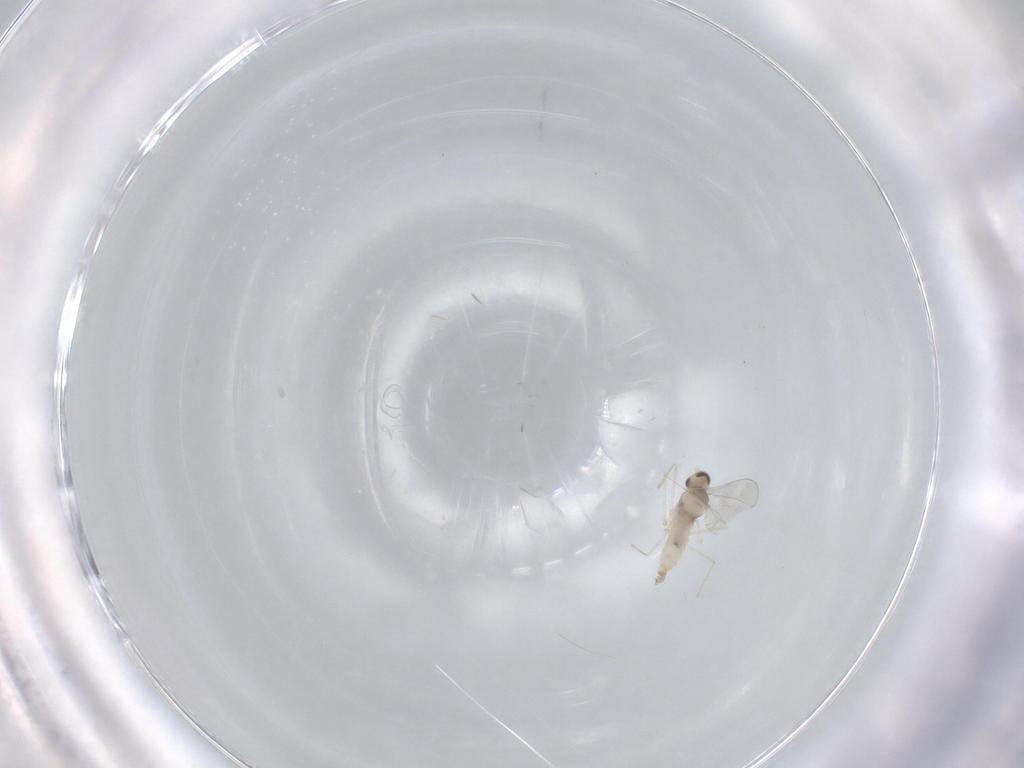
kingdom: Animalia
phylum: Arthropoda
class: Insecta
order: Diptera
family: Cecidomyiidae
